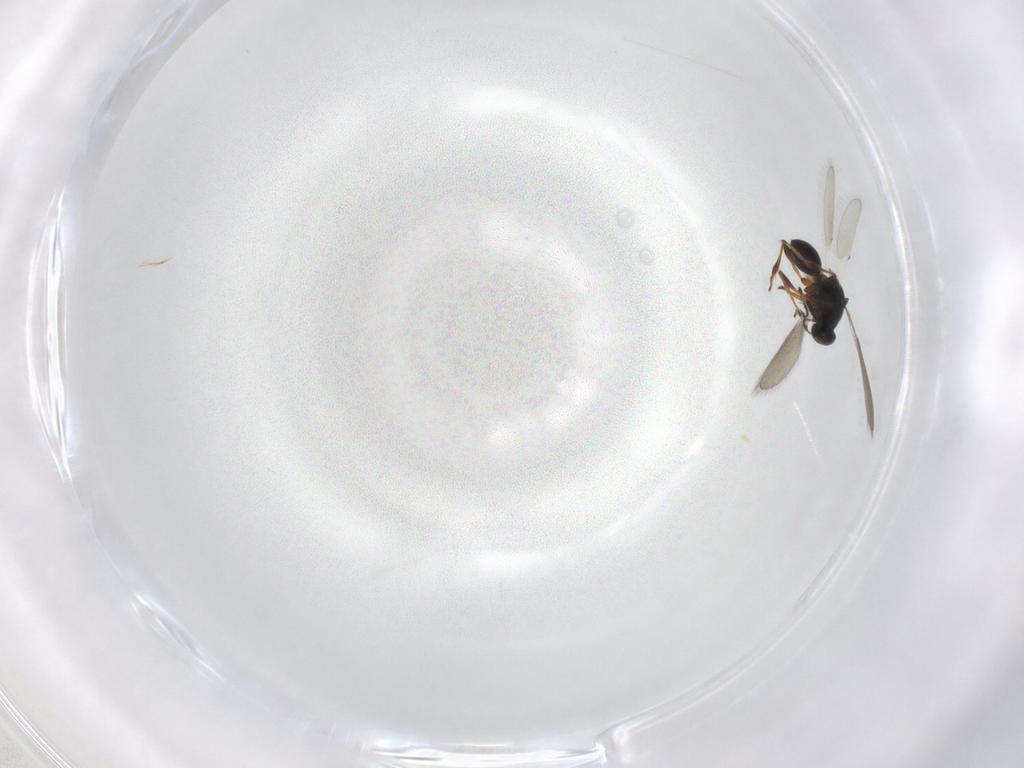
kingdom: Animalia
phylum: Arthropoda
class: Insecta
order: Hymenoptera
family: Platygastridae
